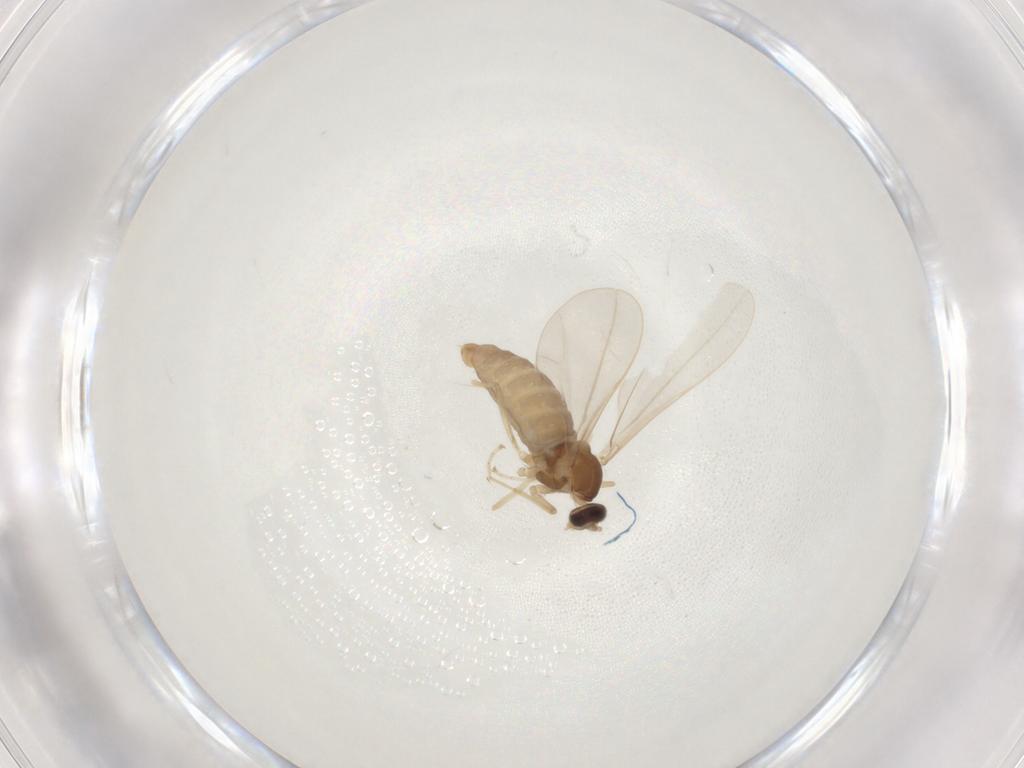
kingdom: Animalia
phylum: Arthropoda
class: Insecta
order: Diptera
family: Cecidomyiidae
